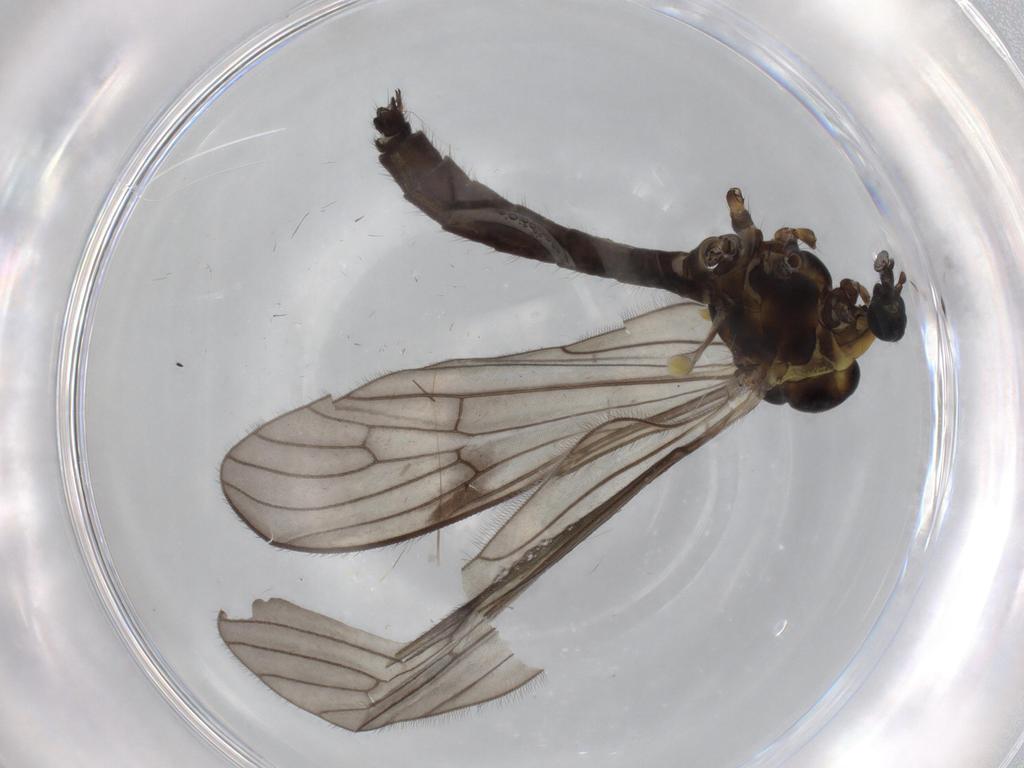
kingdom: Animalia
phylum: Arthropoda
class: Insecta
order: Diptera
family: Chironomidae
